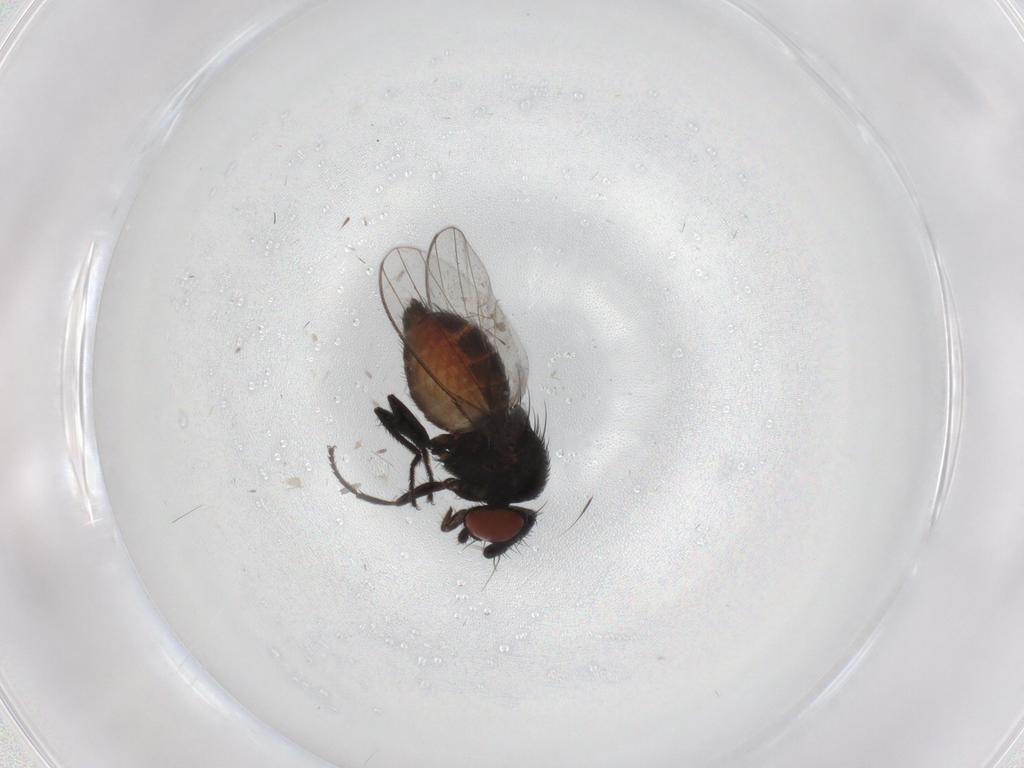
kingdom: Animalia
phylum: Arthropoda
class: Insecta
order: Diptera
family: Milichiidae
